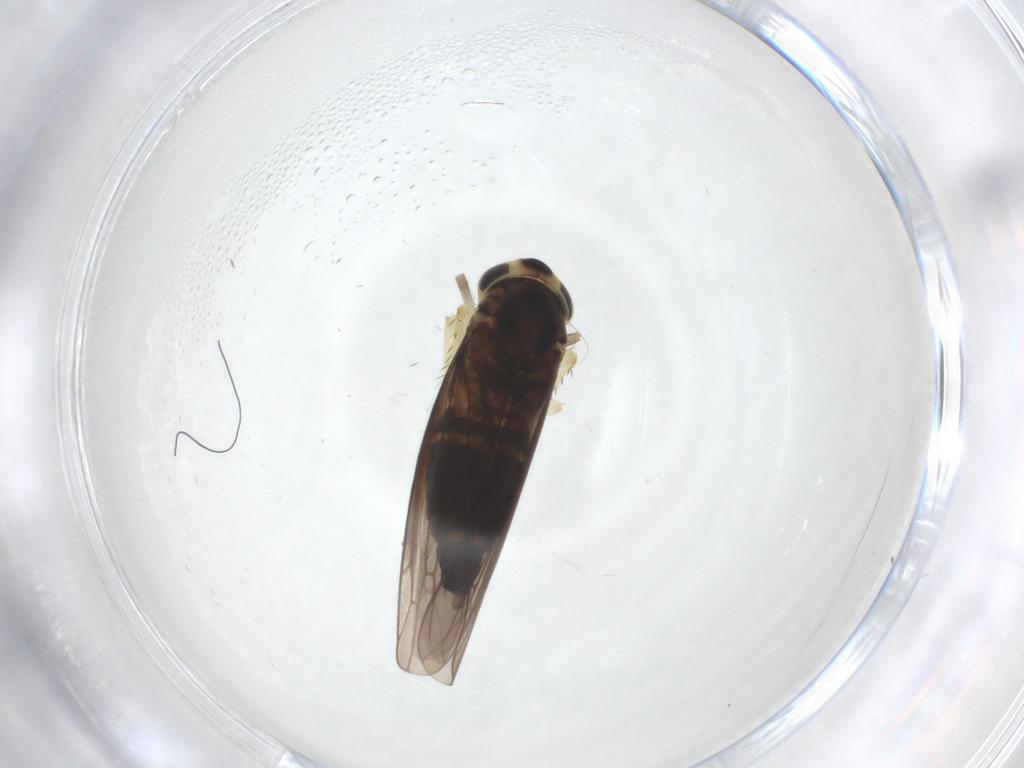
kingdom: Animalia
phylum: Arthropoda
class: Insecta
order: Hemiptera
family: Cicadellidae
